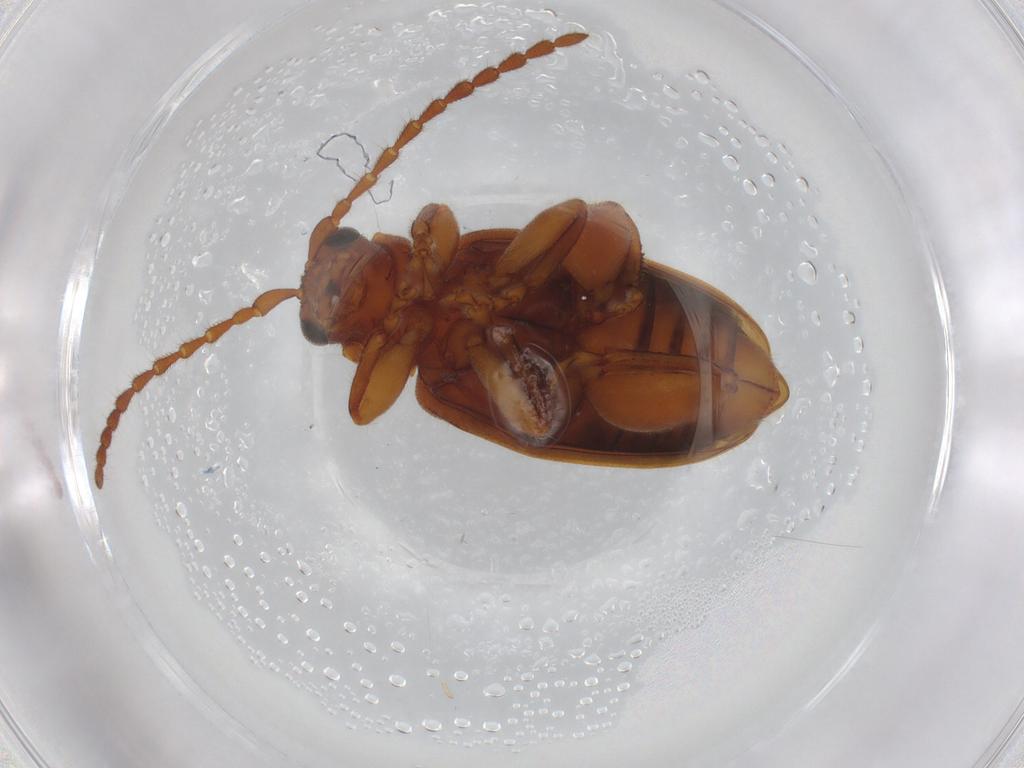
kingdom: Animalia
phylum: Arthropoda
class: Insecta
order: Coleoptera
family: Chrysomelidae
